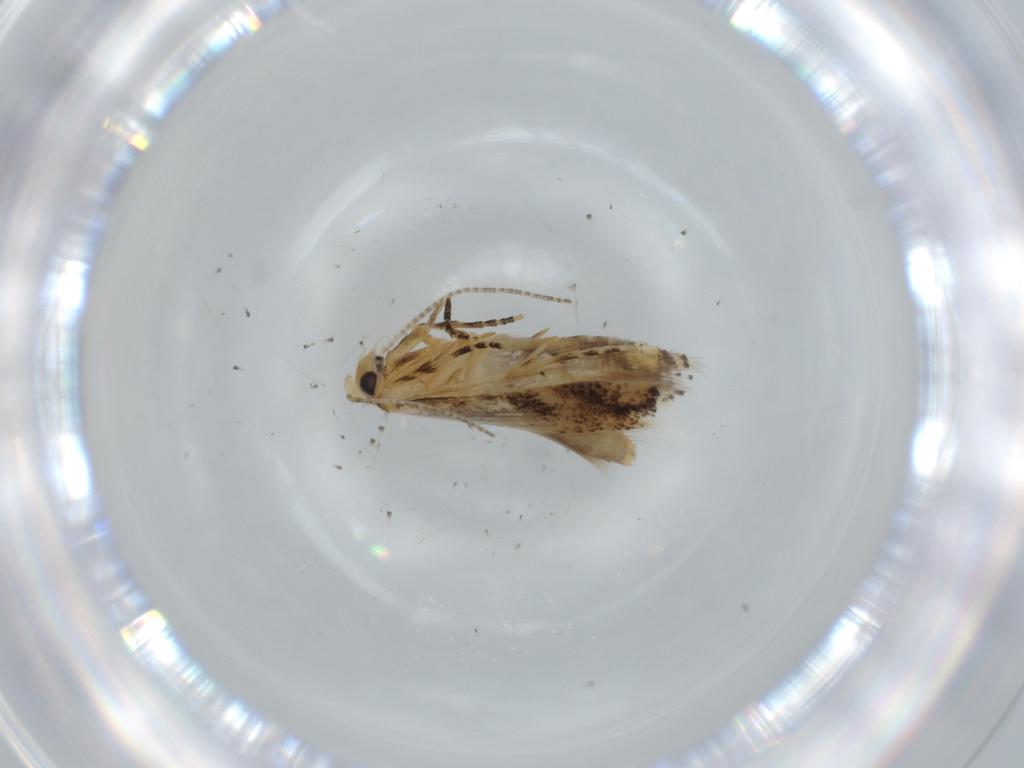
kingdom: Animalia
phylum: Arthropoda
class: Insecta
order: Lepidoptera
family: Bucculatricidae
